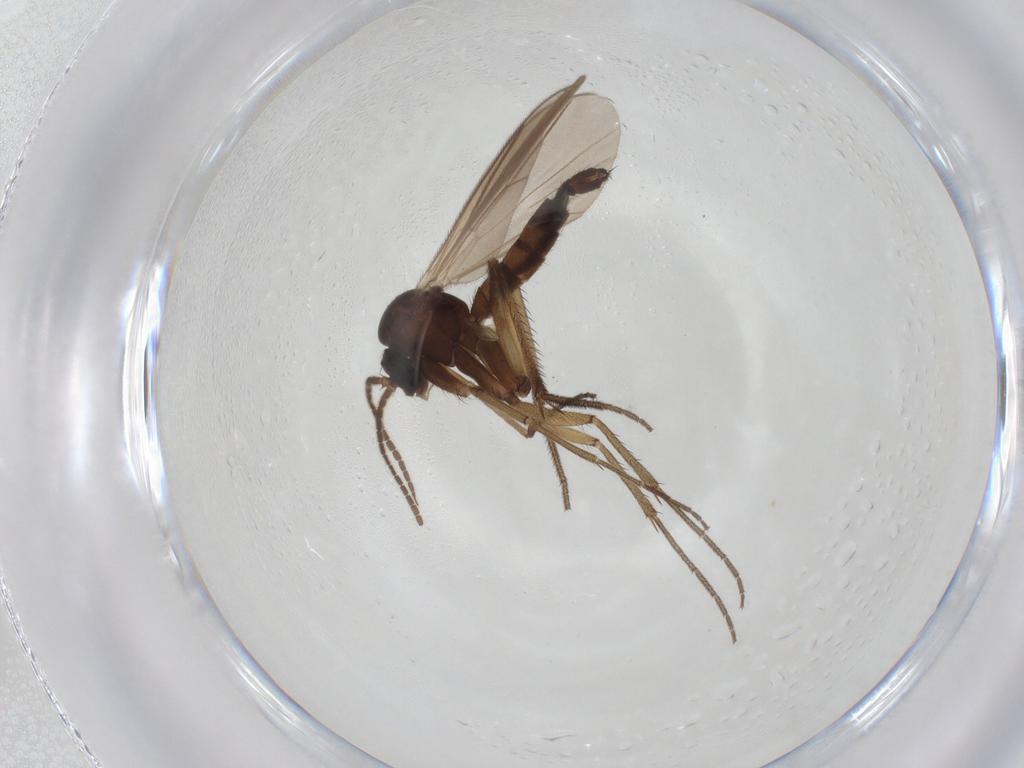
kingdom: Animalia
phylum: Arthropoda
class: Insecta
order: Diptera
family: Mycetophilidae
